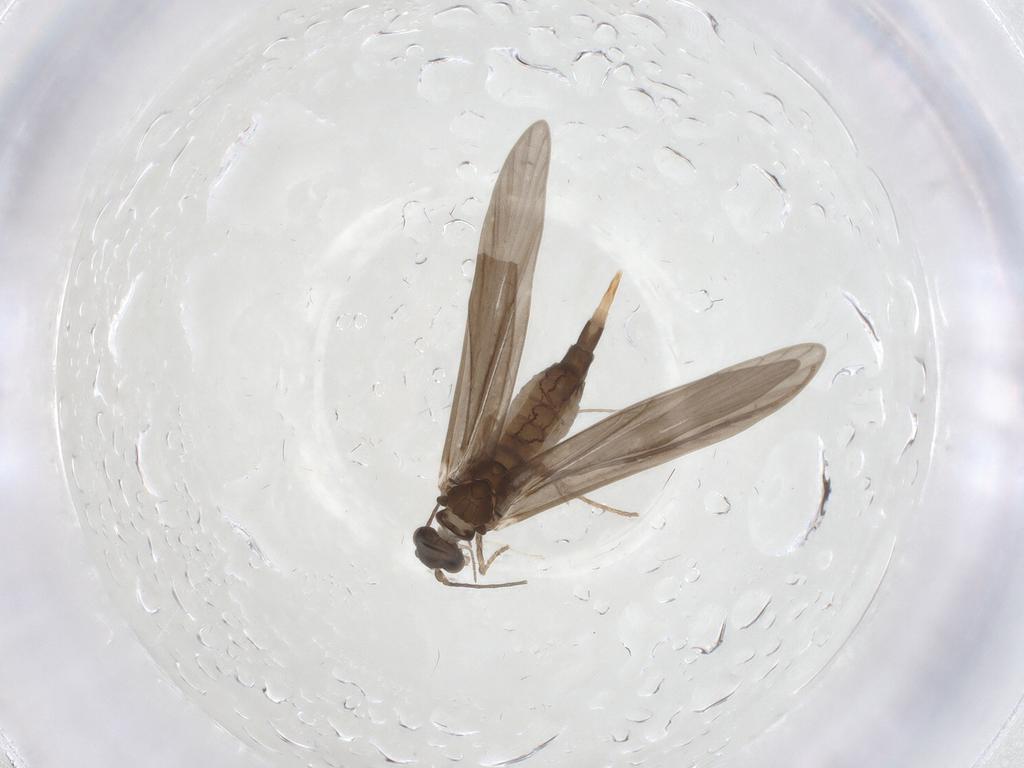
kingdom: Animalia
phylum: Arthropoda
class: Insecta
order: Trichoptera
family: Xiphocentronidae
